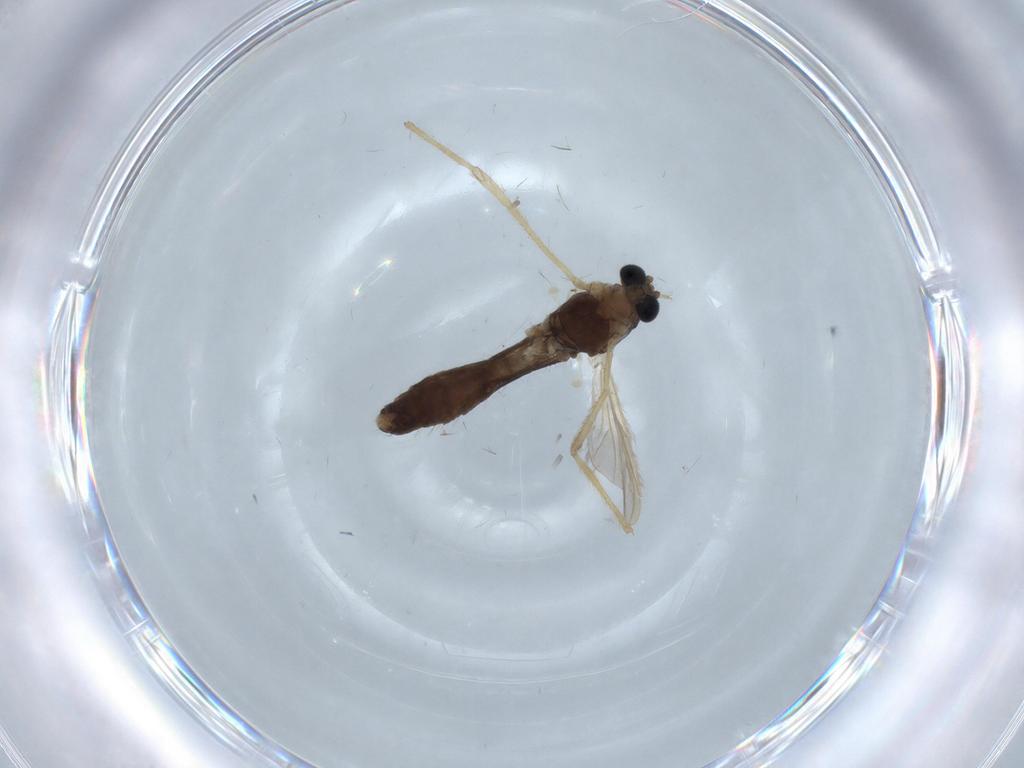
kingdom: Animalia
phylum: Arthropoda
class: Insecta
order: Diptera
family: Chironomidae
